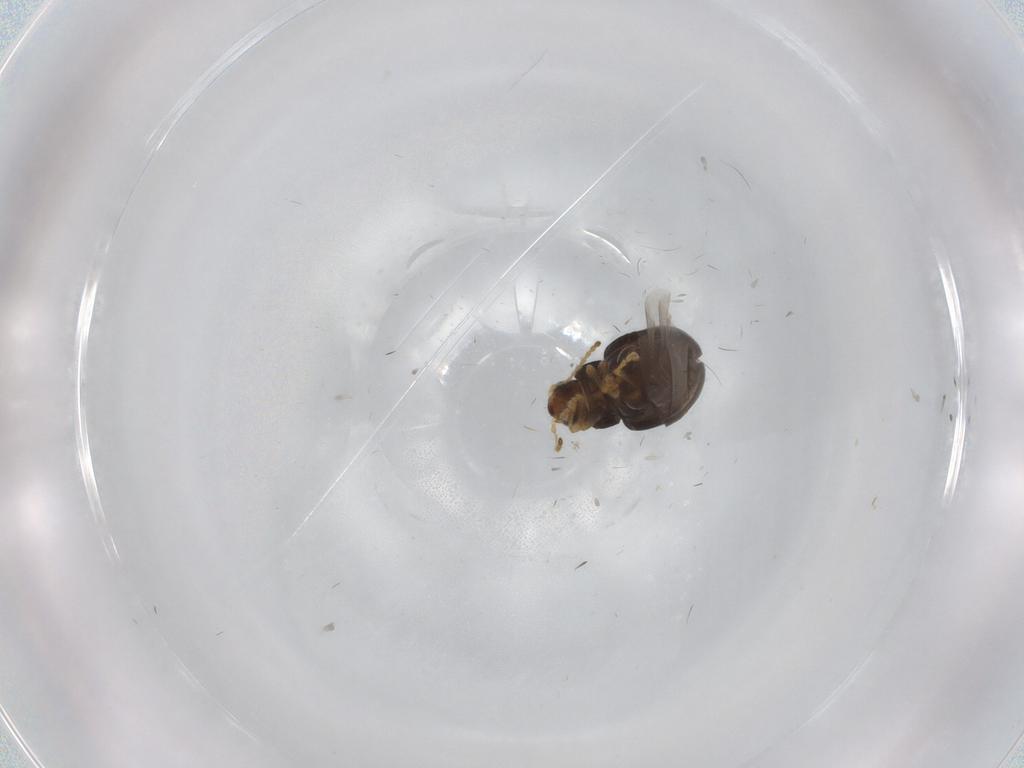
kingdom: Animalia
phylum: Arthropoda
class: Insecta
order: Coleoptera
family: Chrysomelidae
